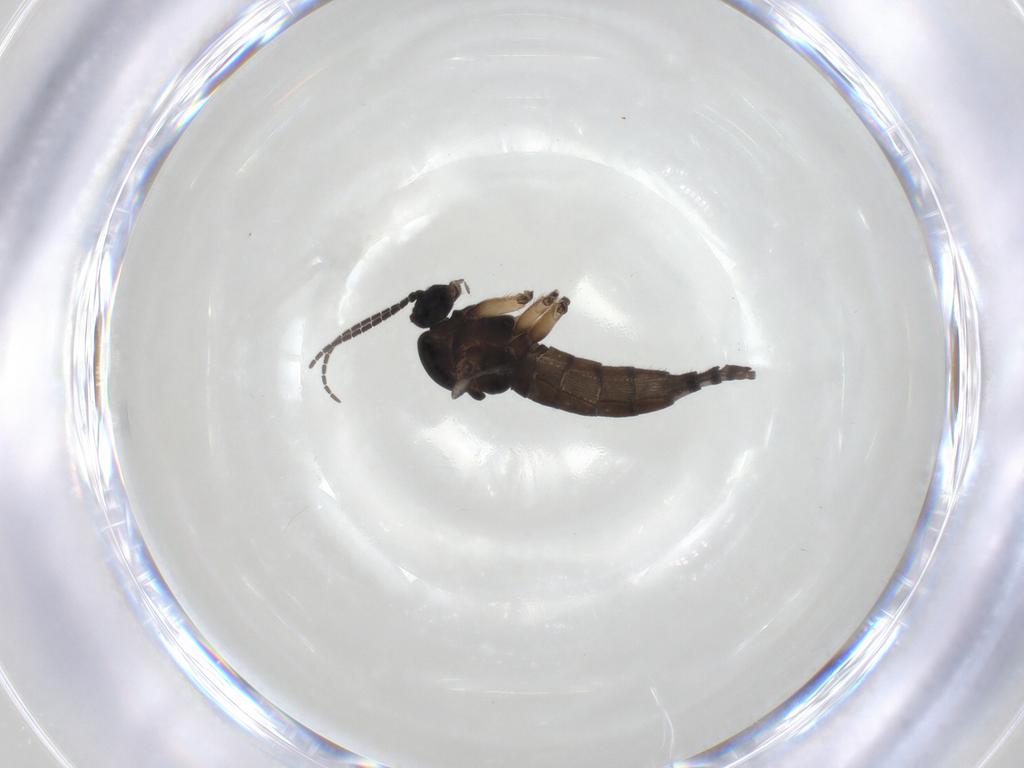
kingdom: Animalia
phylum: Arthropoda
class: Insecta
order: Diptera
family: Sciaridae
